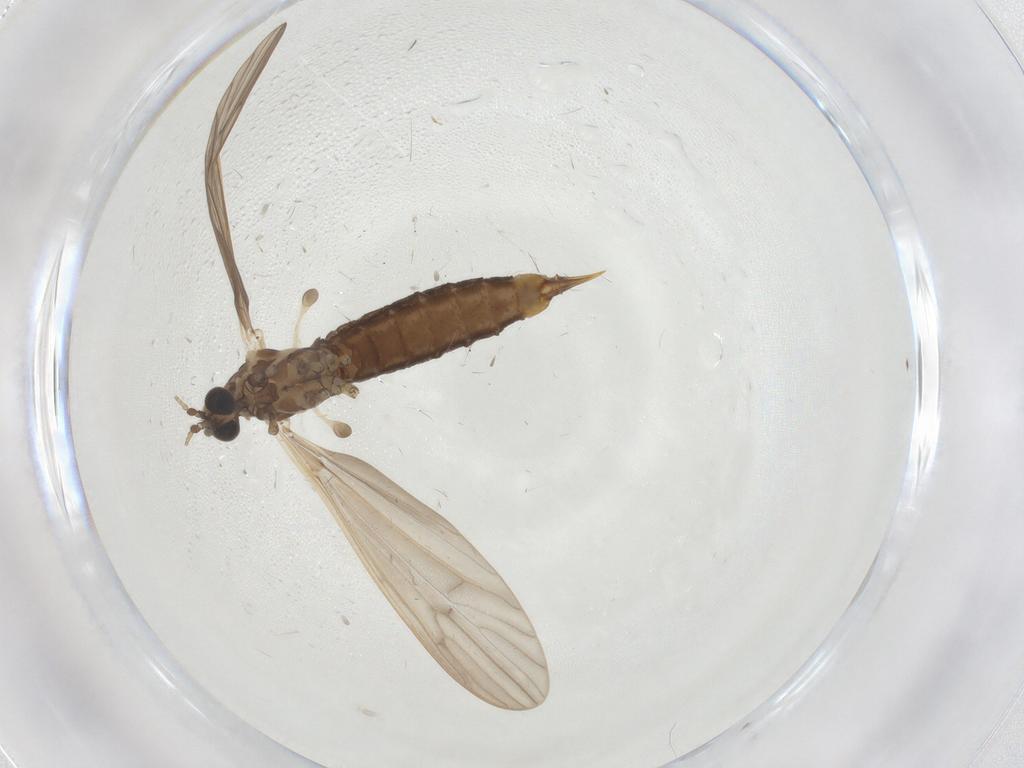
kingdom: Animalia
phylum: Arthropoda
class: Insecta
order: Diptera
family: Limoniidae
